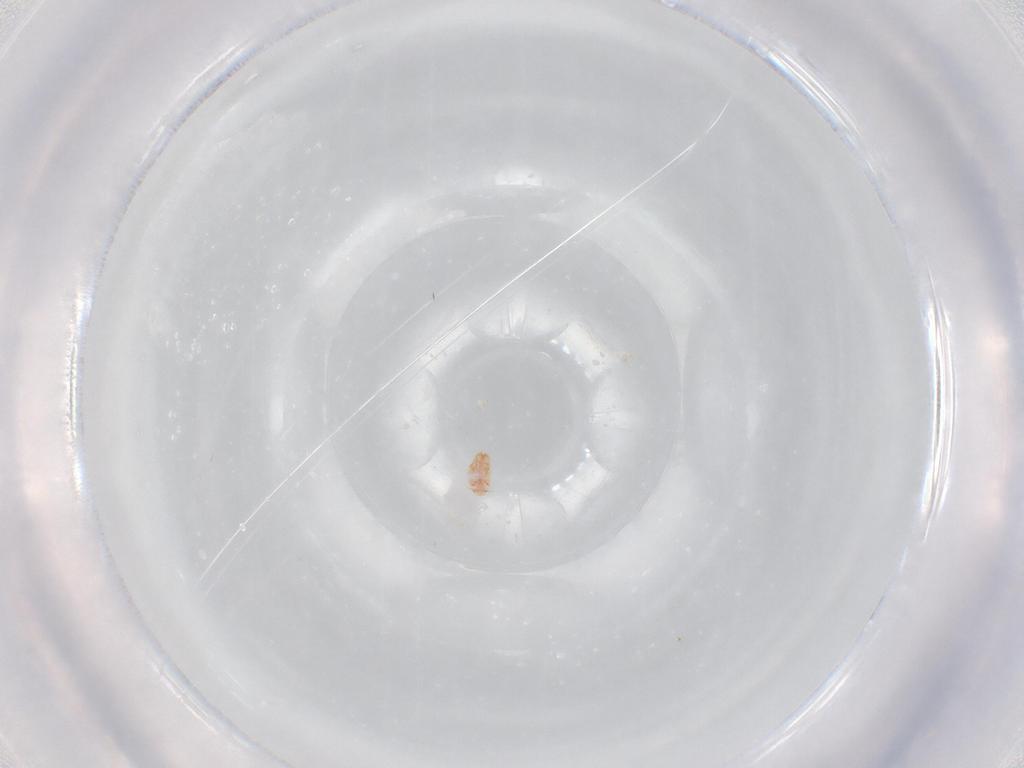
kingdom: Animalia
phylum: Arthropoda
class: Insecta
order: Hemiptera
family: Coccidae
